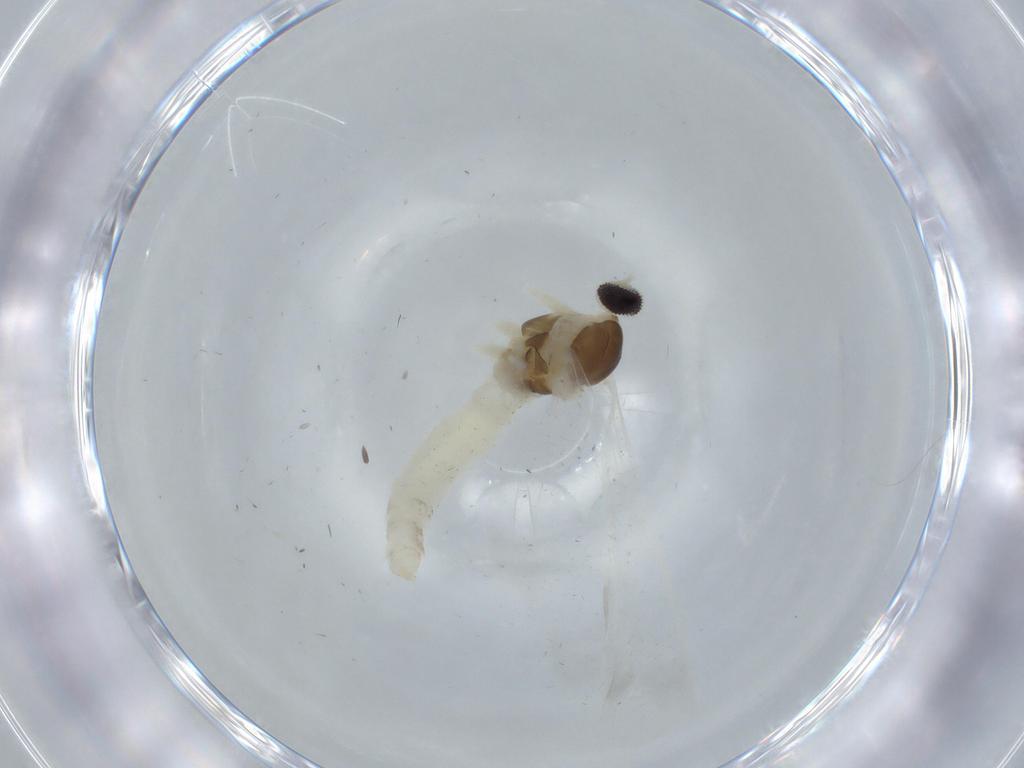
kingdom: Animalia
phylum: Arthropoda
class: Insecta
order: Diptera
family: Cecidomyiidae
